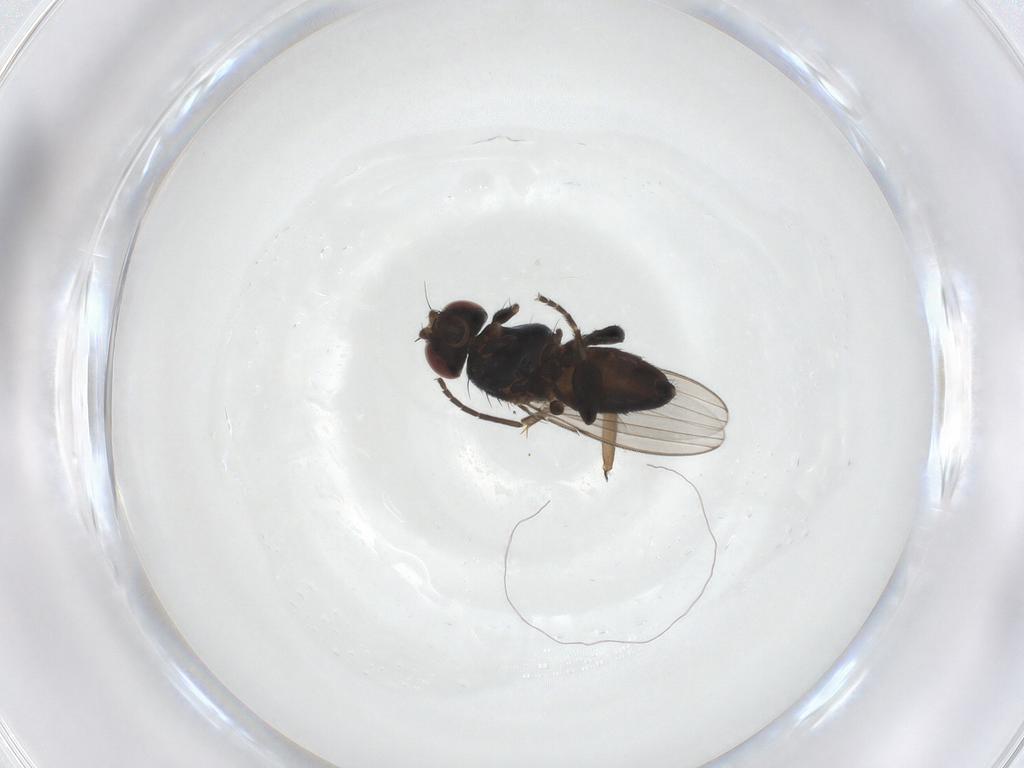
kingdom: Animalia
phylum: Arthropoda
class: Insecta
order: Diptera
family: Chloropidae
